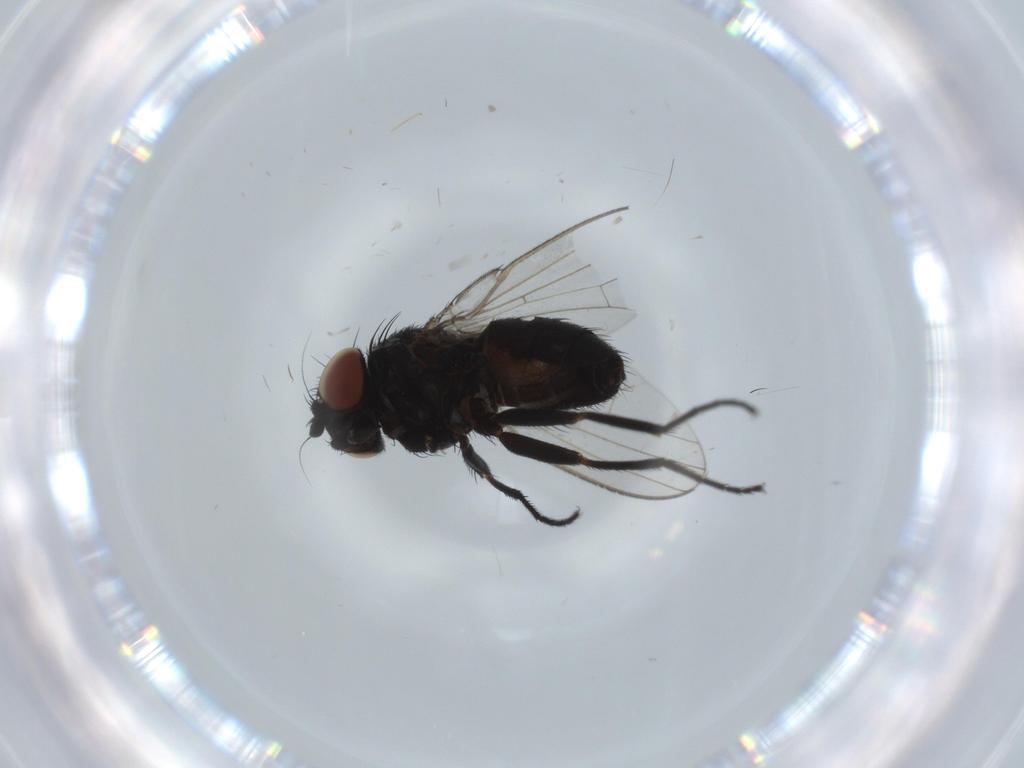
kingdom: Animalia
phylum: Arthropoda
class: Insecta
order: Diptera
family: Milichiidae
